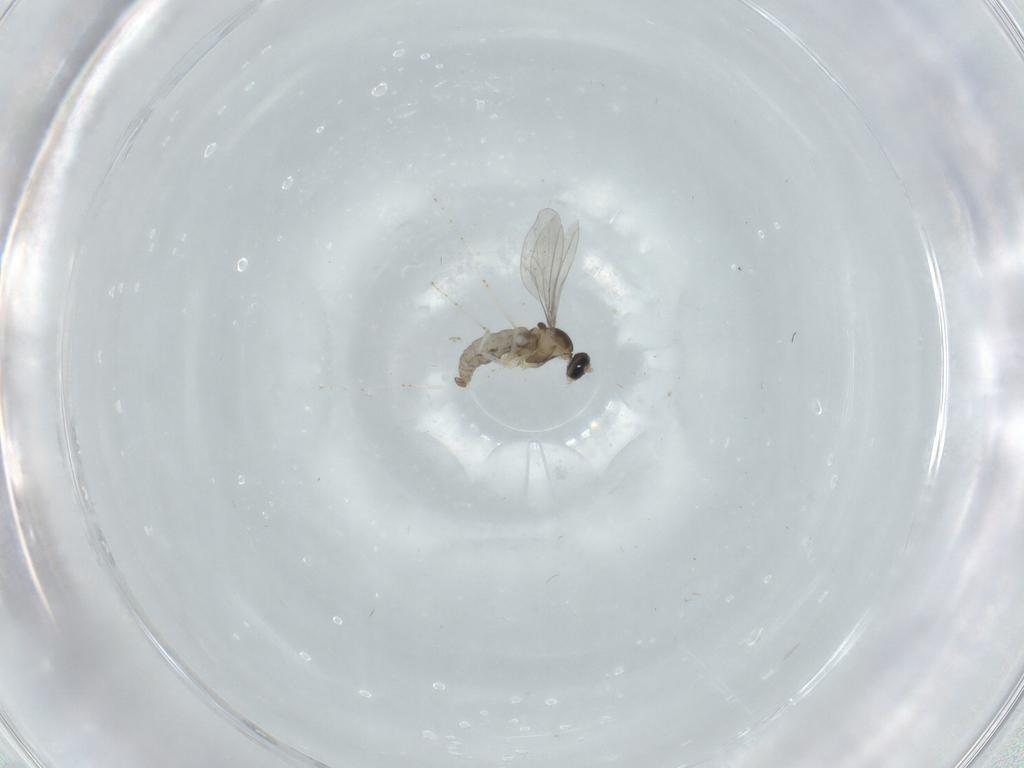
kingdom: Animalia
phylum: Arthropoda
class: Insecta
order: Diptera
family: Cecidomyiidae
